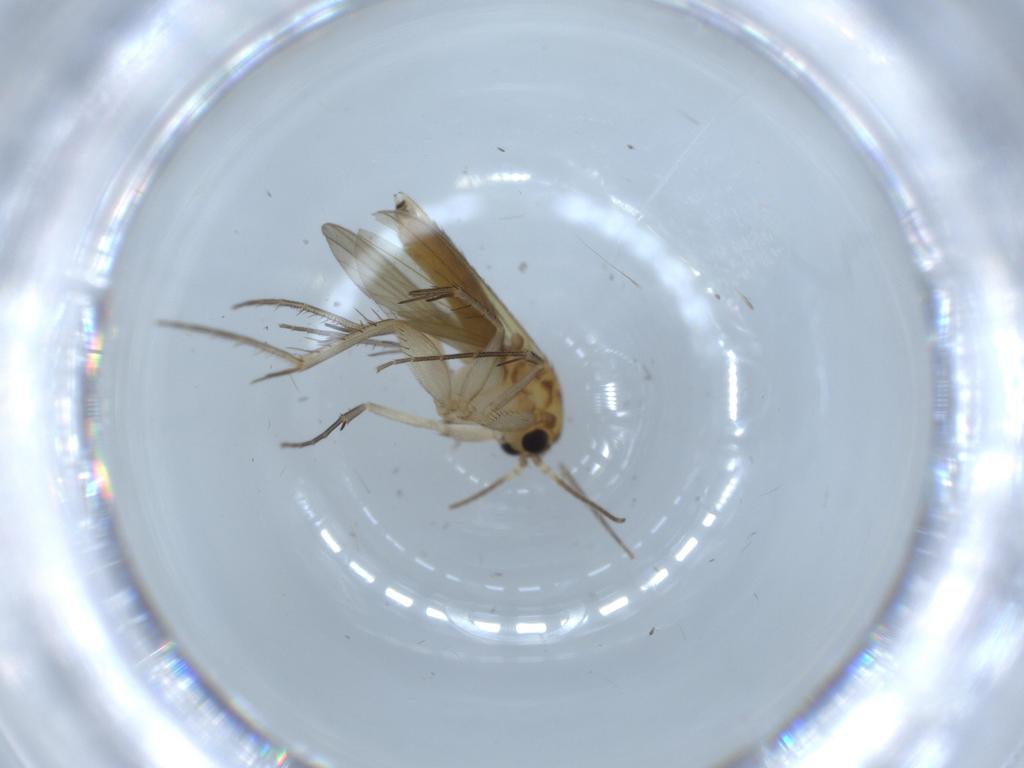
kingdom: Animalia
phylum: Arthropoda
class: Insecta
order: Diptera
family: Mycetophilidae
